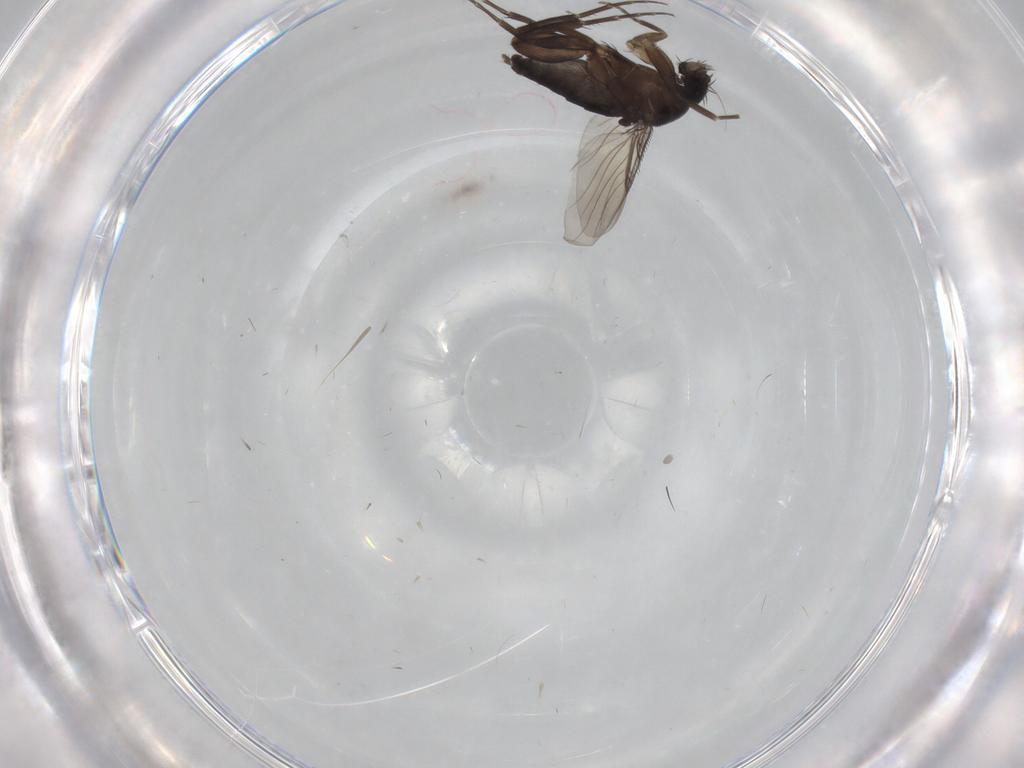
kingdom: Animalia
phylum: Arthropoda
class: Insecta
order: Diptera
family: Phoridae
